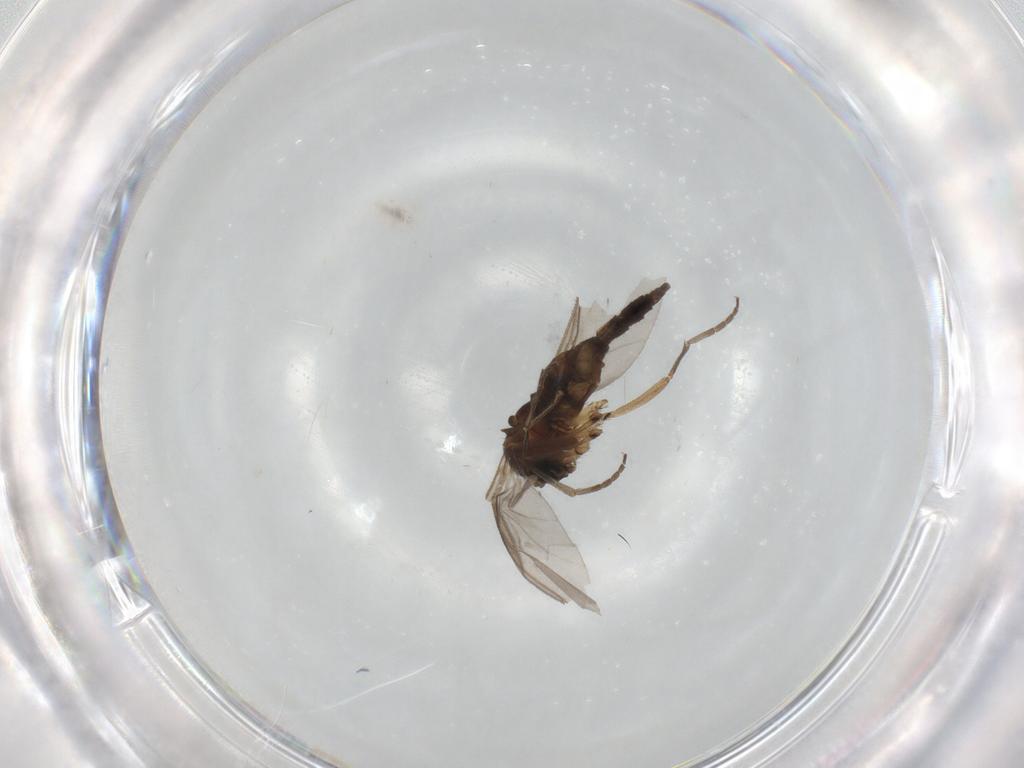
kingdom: Animalia
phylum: Arthropoda
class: Insecta
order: Diptera
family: Sciaridae
